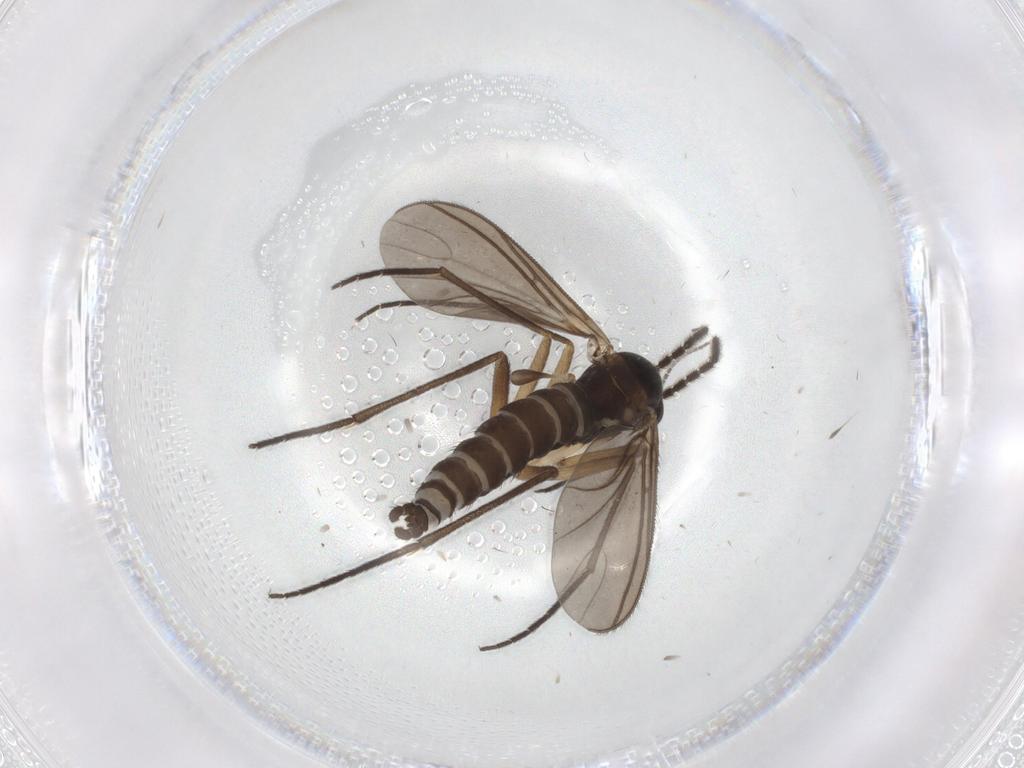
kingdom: Animalia
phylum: Arthropoda
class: Insecta
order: Diptera
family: Sciaridae
